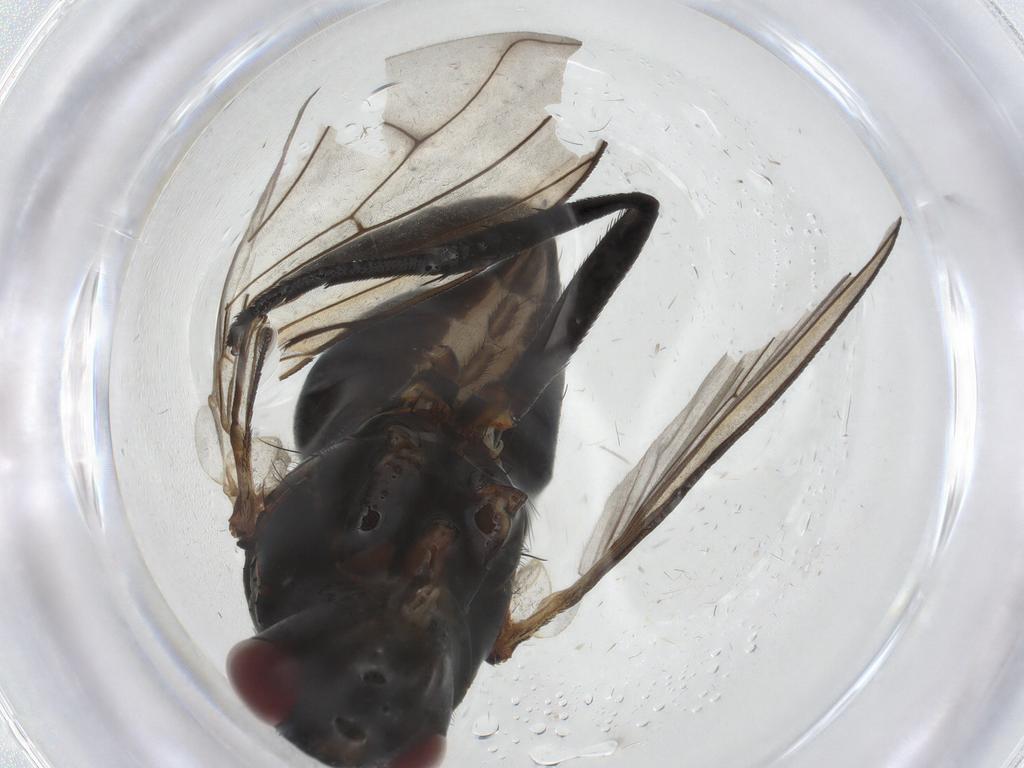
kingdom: Animalia
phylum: Arthropoda
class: Insecta
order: Diptera
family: Tachinidae
